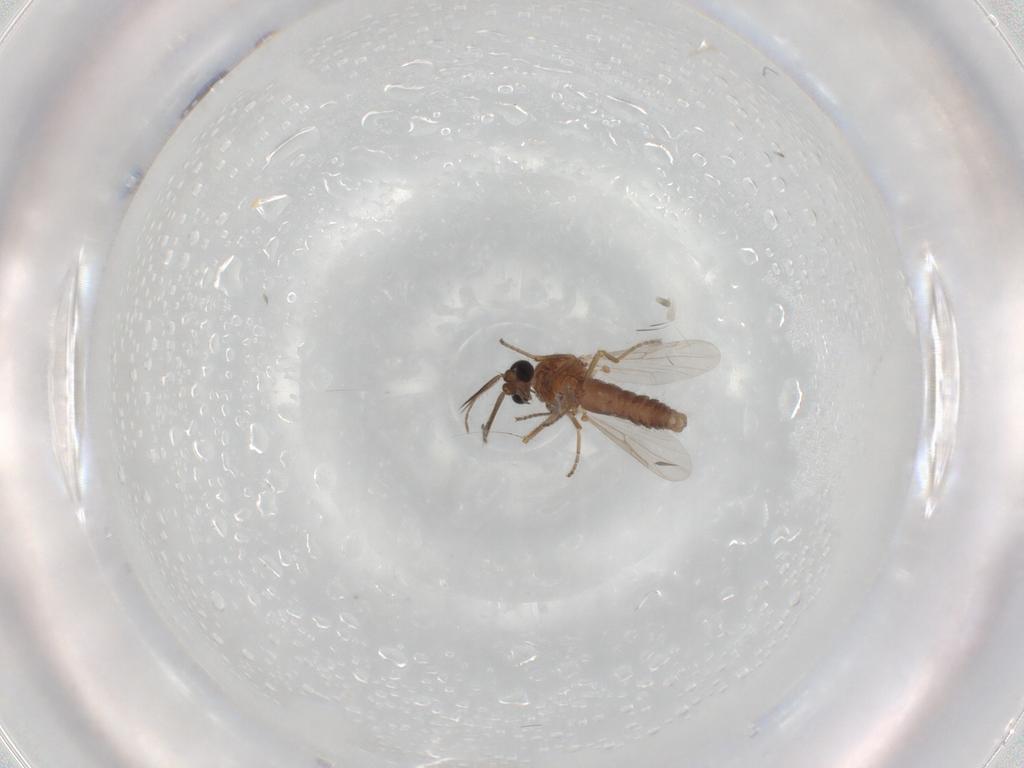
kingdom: Animalia
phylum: Arthropoda
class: Insecta
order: Diptera
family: Ceratopogonidae
